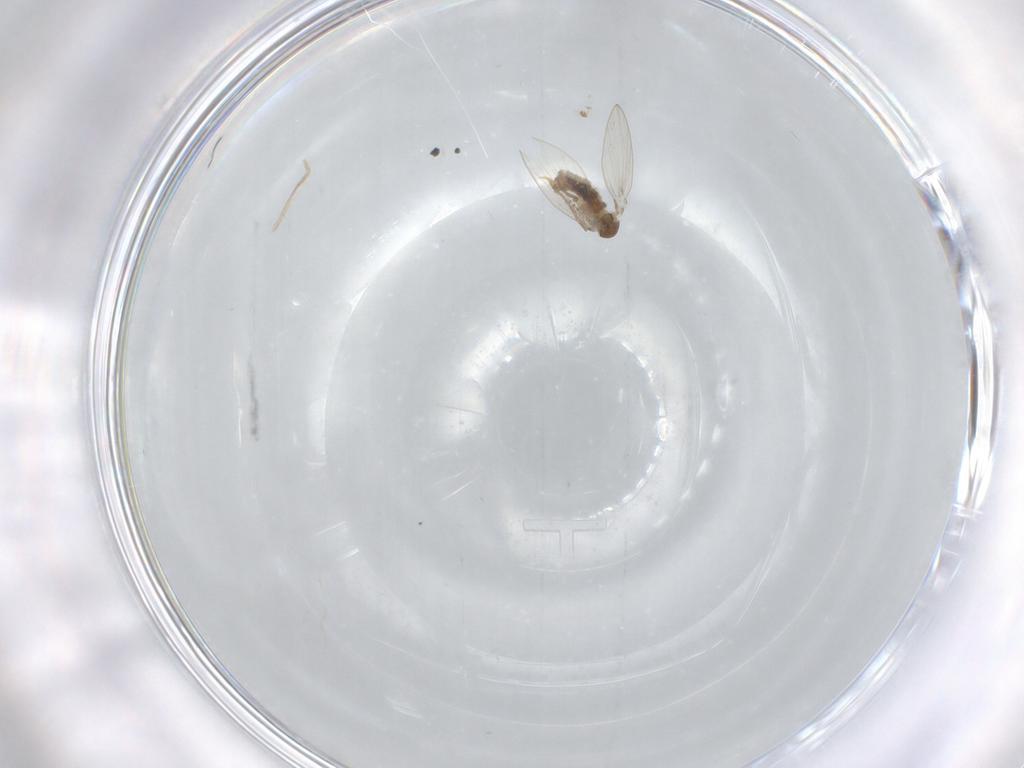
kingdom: Animalia
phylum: Arthropoda
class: Insecta
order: Diptera
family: Psychodidae
